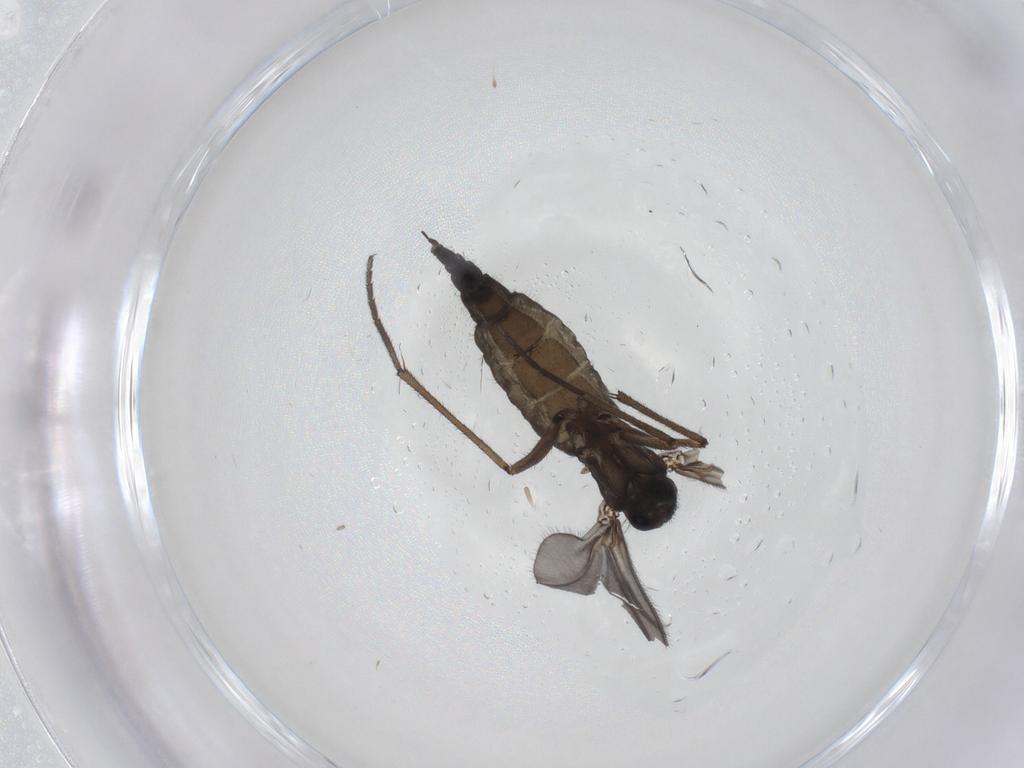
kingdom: Animalia
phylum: Arthropoda
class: Insecta
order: Diptera
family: Sciaridae
